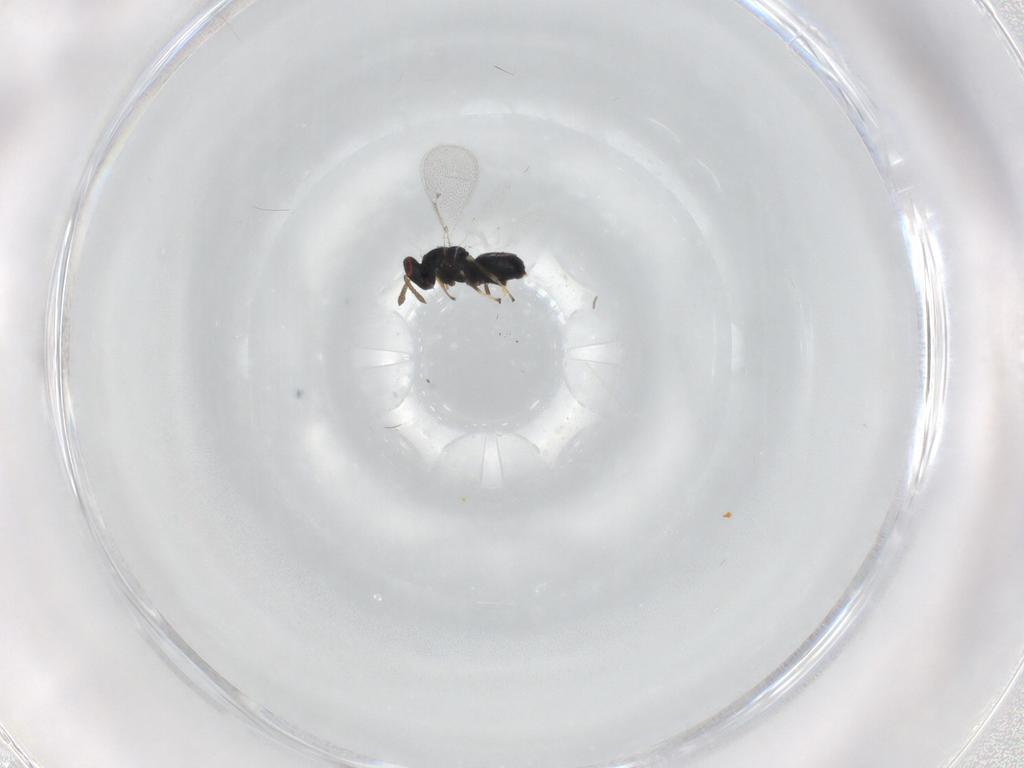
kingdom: Animalia
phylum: Arthropoda
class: Insecta
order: Hymenoptera
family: Eulophidae
